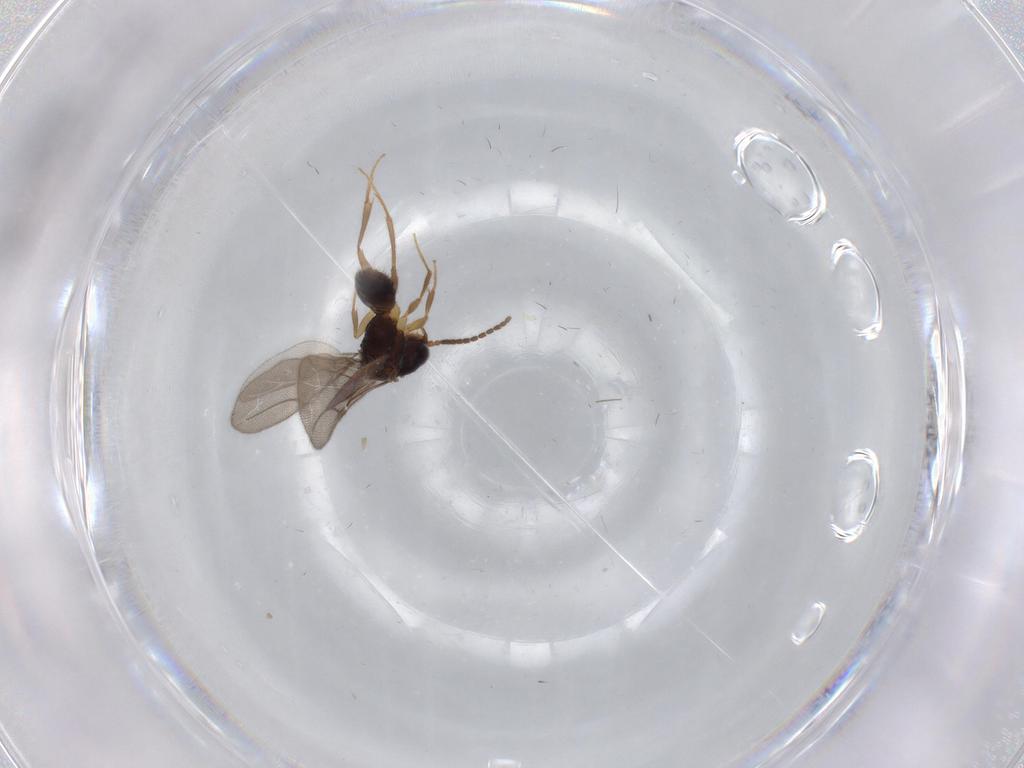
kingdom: Animalia
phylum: Arthropoda
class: Insecta
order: Hymenoptera
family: Bethylidae
